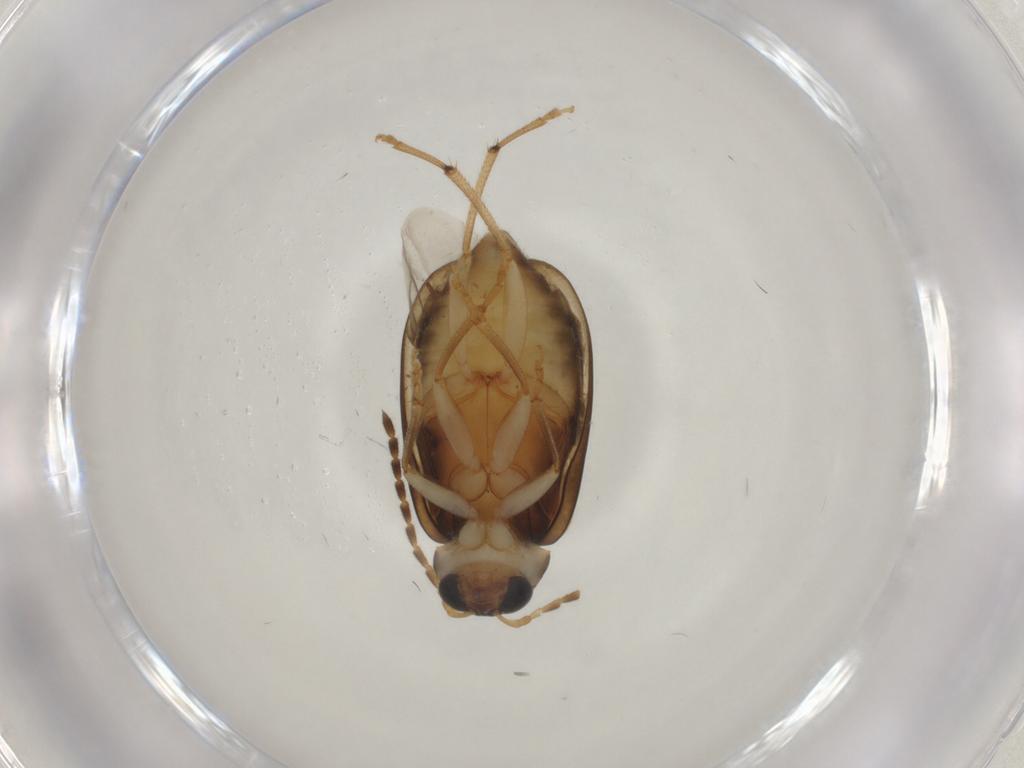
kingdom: Animalia
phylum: Arthropoda
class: Insecta
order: Coleoptera
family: Chrysomelidae
